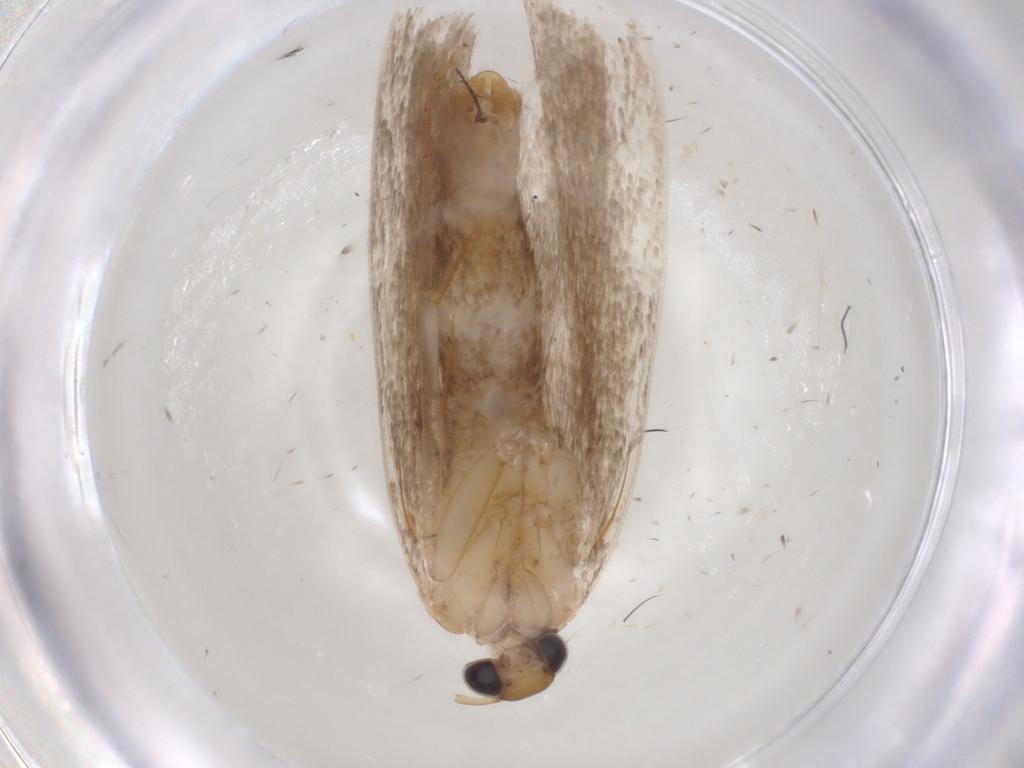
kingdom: Animalia
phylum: Arthropoda
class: Insecta
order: Lepidoptera
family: Gelechiidae
